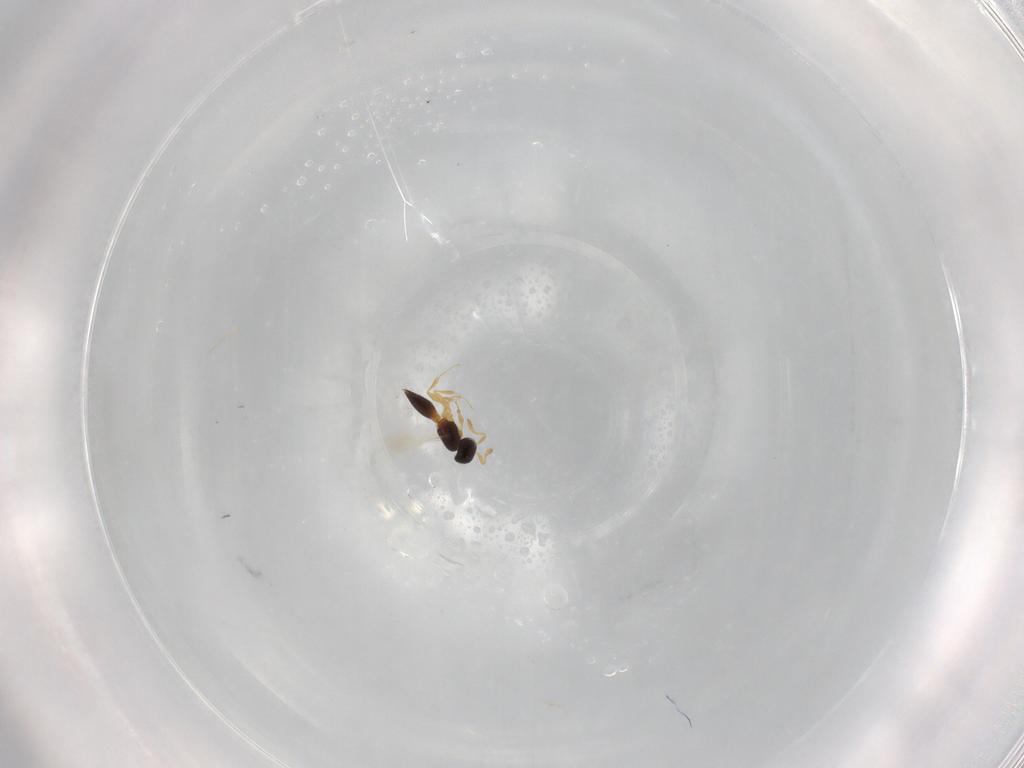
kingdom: Animalia
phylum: Arthropoda
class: Insecta
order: Hymenoptera
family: Platygastridae
